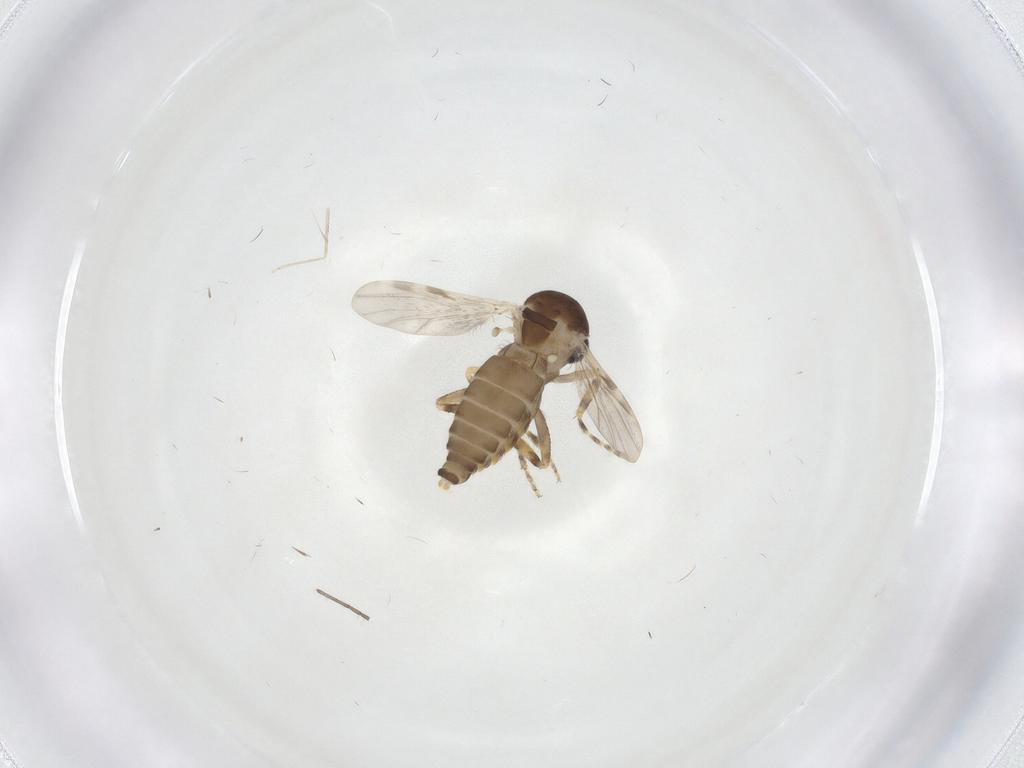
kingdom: Animalia
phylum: Arthropoda
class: Insecta
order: Diptera
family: Ceratopogonidae
